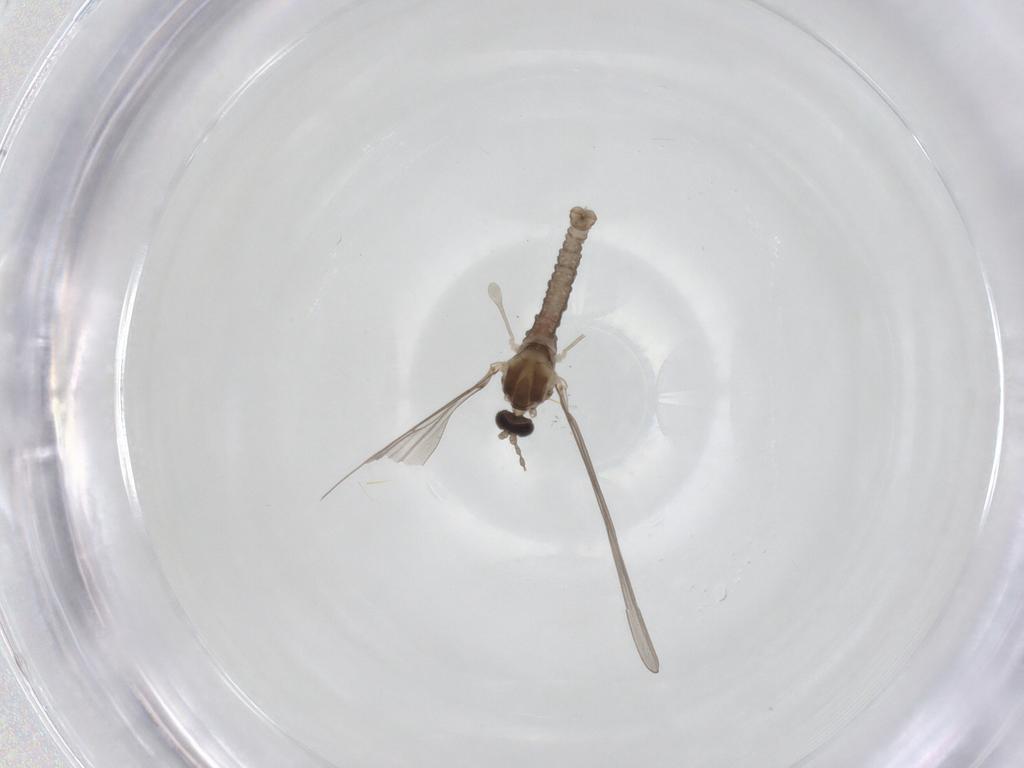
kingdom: Animalia
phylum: Arthropoda
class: Insecta
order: Diptera
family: Cecidomyiidae
